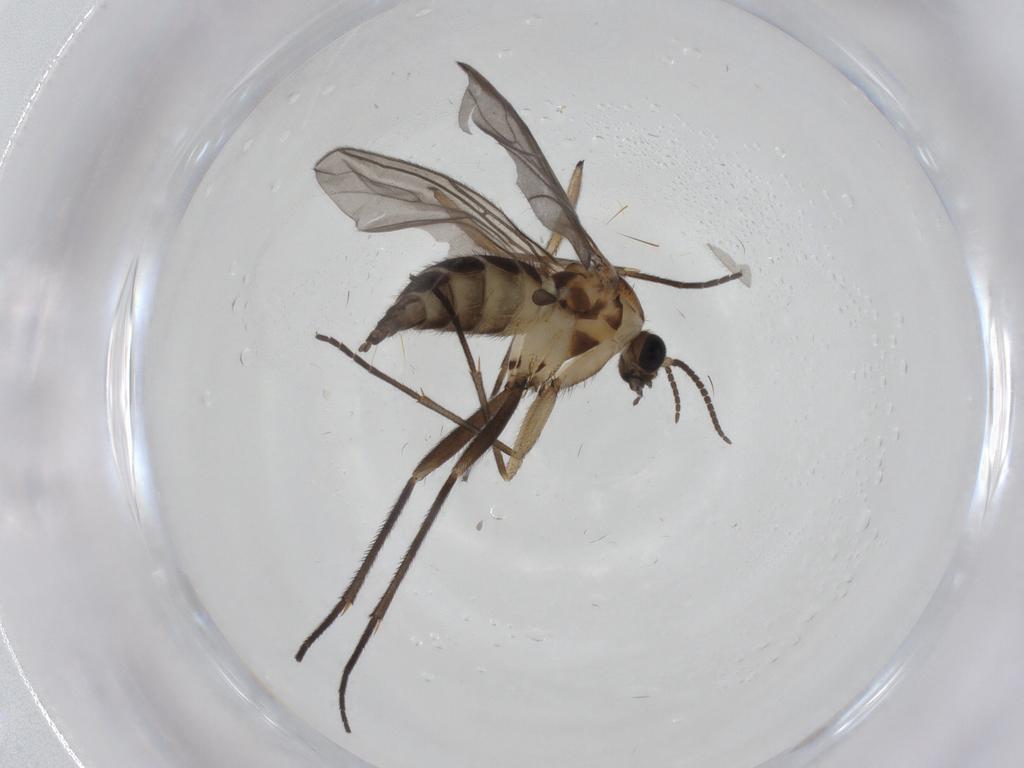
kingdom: Animalia
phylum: Arthropoda
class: Insecta
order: Diptera
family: Sciaridae
